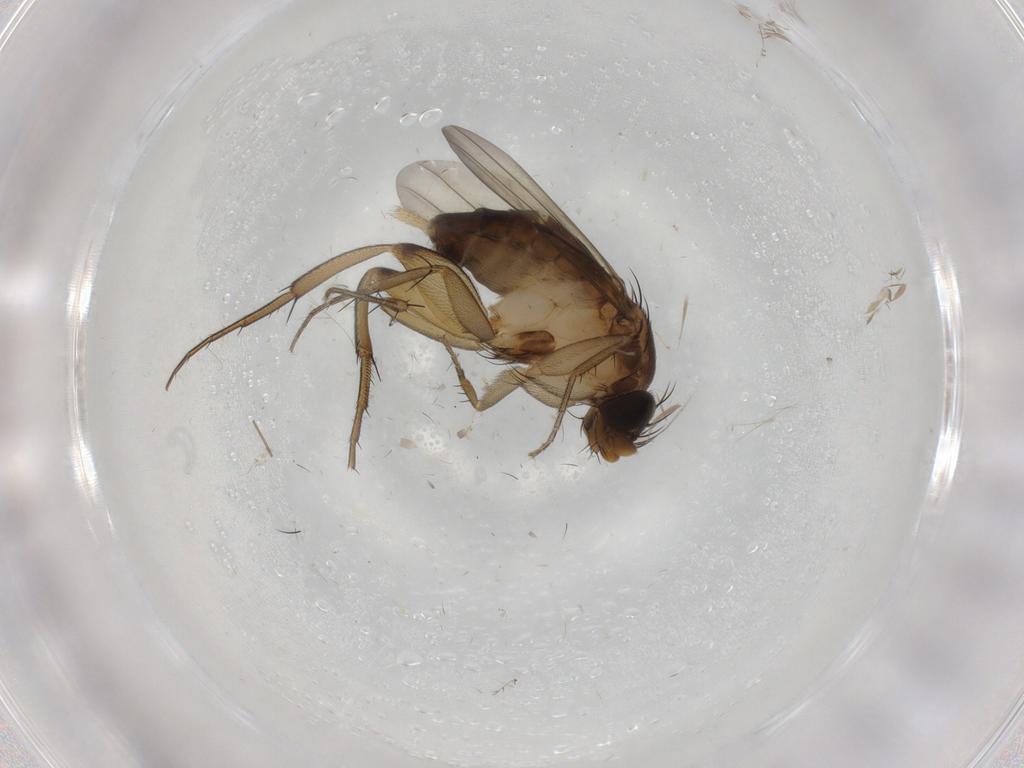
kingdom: Animalia
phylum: Arthropoda
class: Insecta
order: Diptera
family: Phoridae
